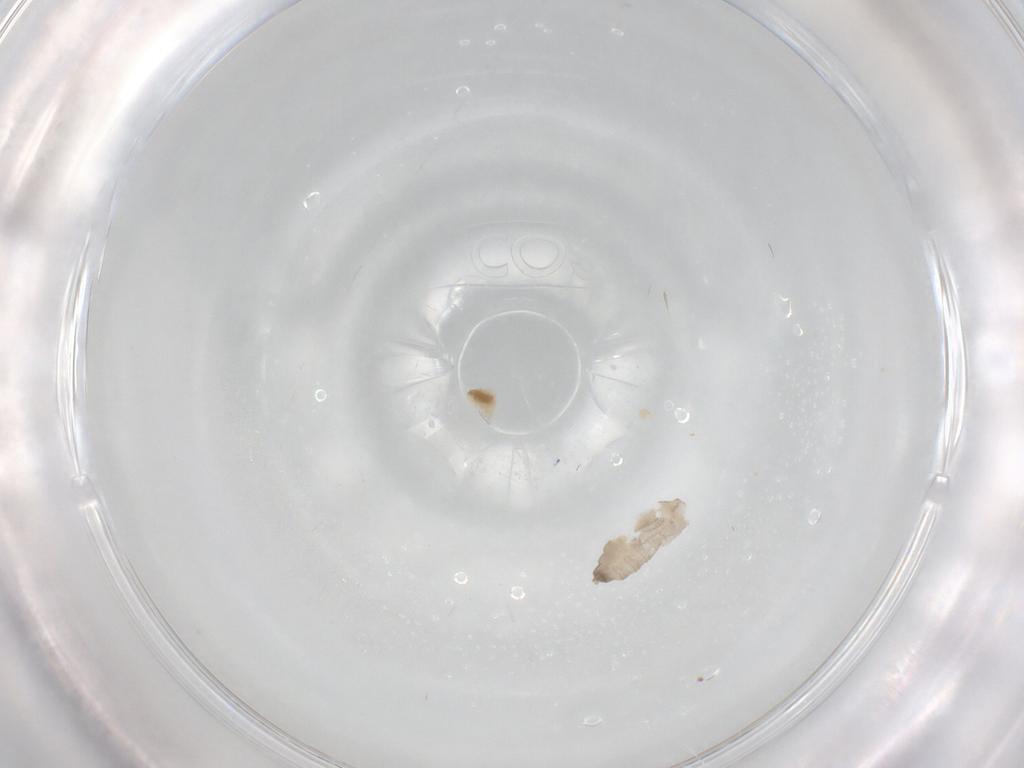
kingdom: Animalia
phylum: Arthropoda
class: Insecta
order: Diptera
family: Cecidomyiidae
